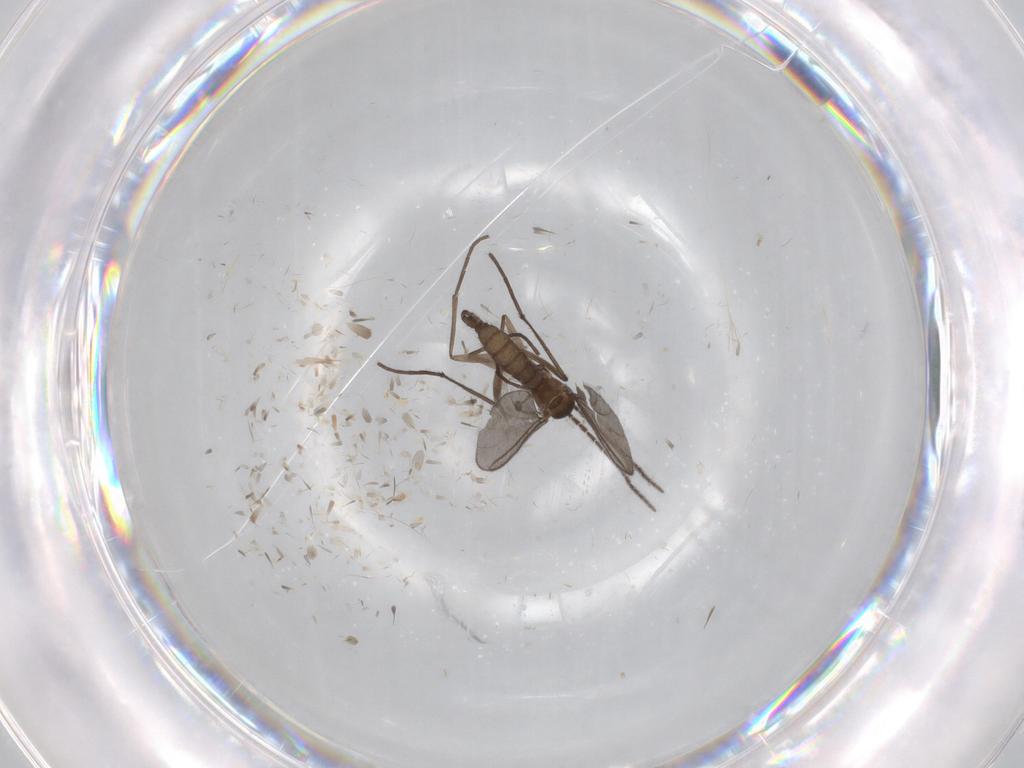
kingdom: Animalia
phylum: Arthropoda
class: Insecta
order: Diptera
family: Sciaridae
